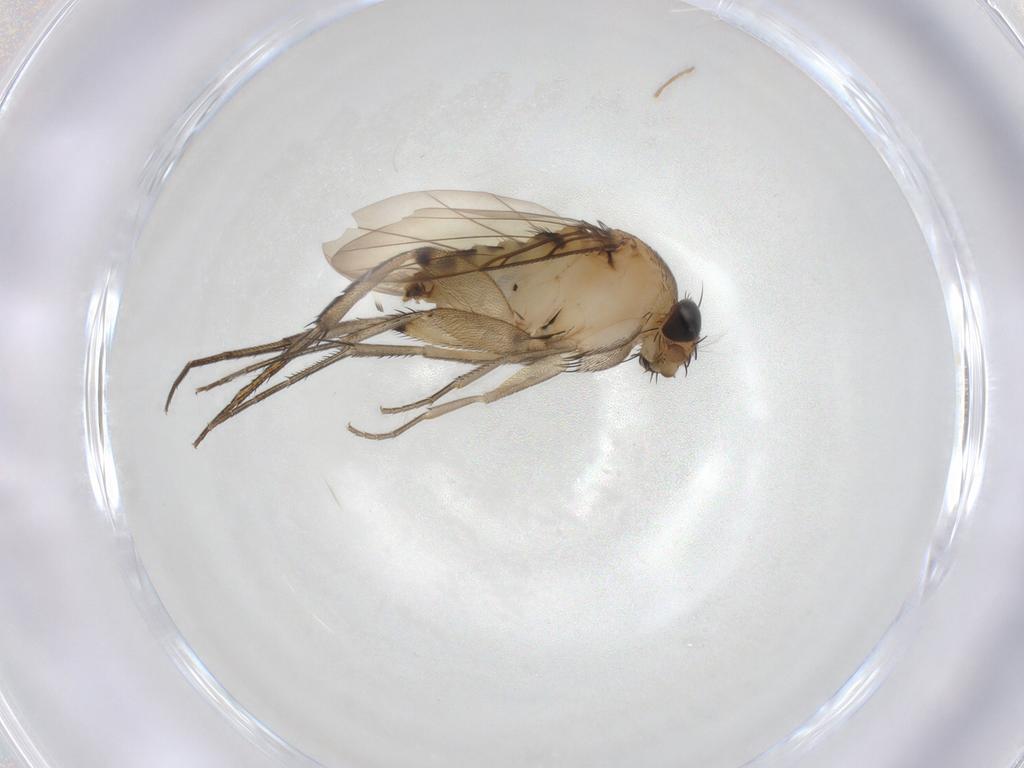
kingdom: Animalia
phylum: Arthropoda
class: Insecta
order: Diptera
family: Phoridae
